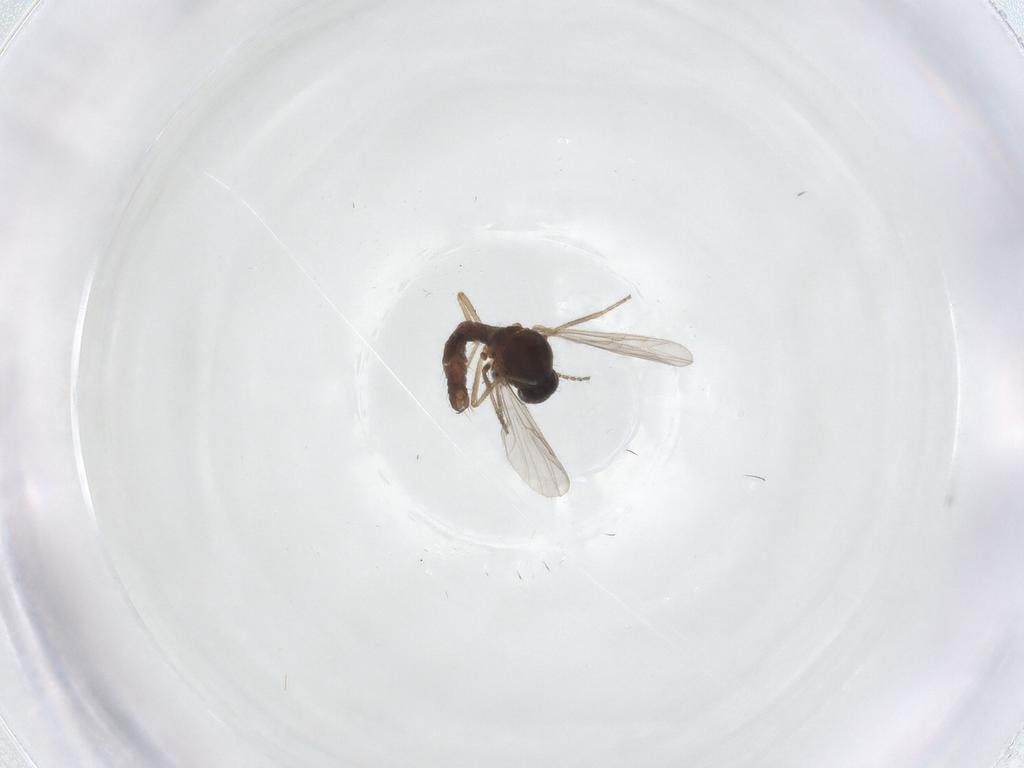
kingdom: Animalia
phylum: Arthropoda
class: Insecta
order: Diptera
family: Ceratopogonidae
